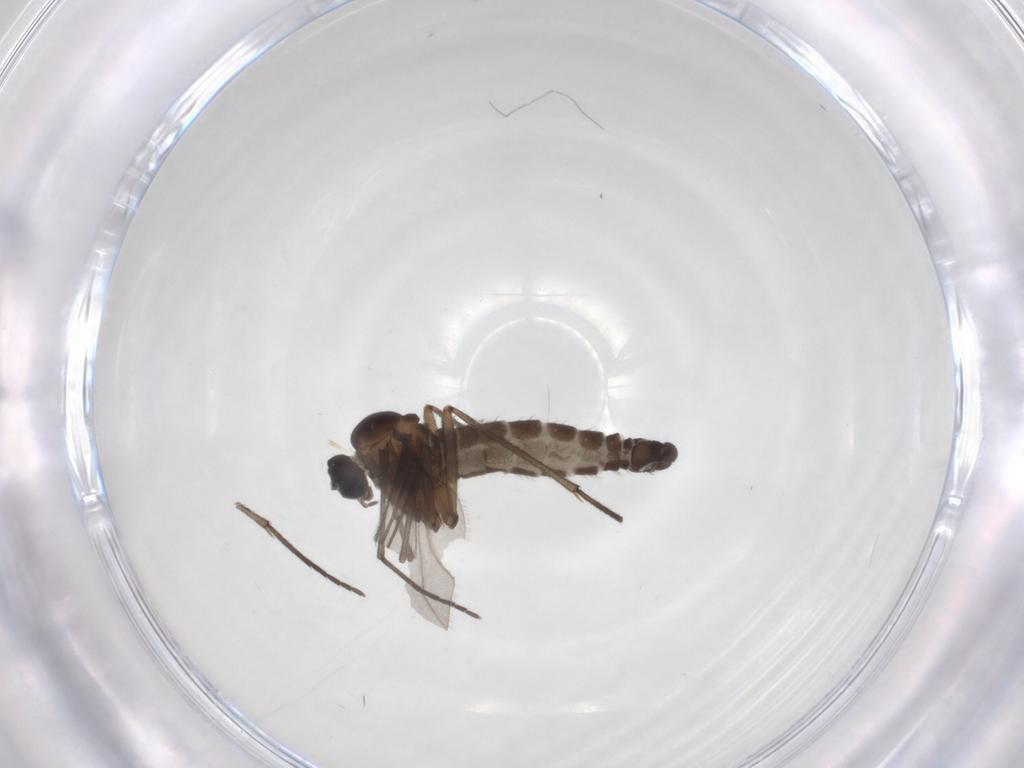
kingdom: Animalia
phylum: Arthropoda
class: Insecta
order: Diptera
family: Sciaridae
